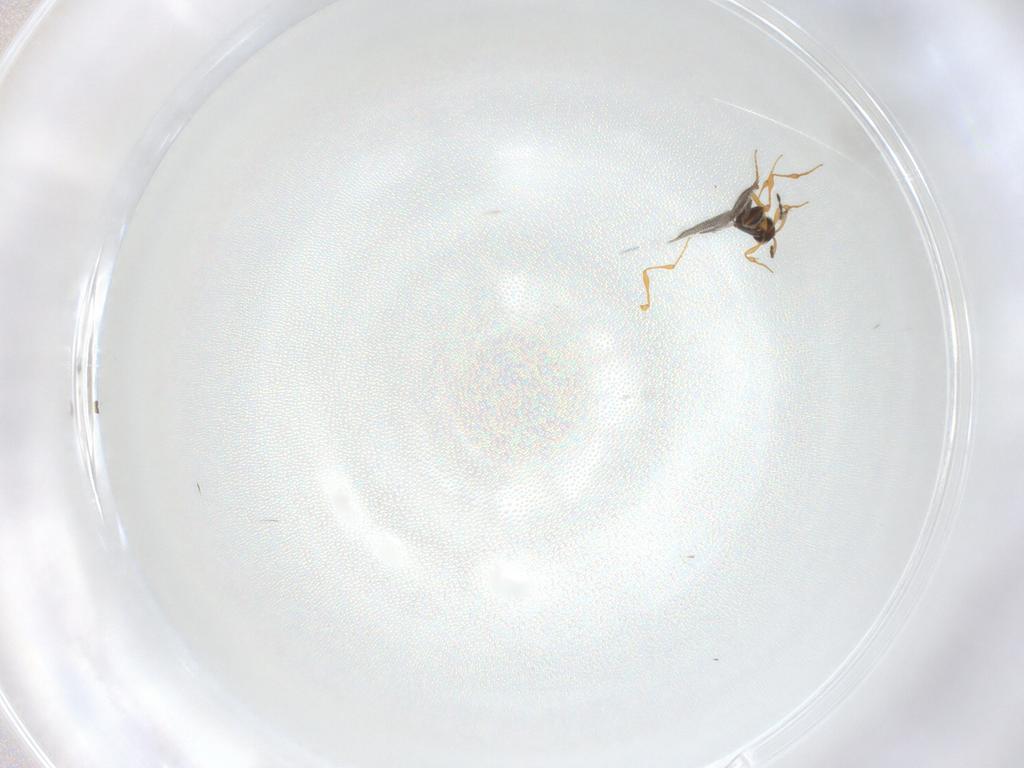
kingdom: Animalia
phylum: Arthropoda
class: Insecta
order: Hymenoptera
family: Platygastridae
